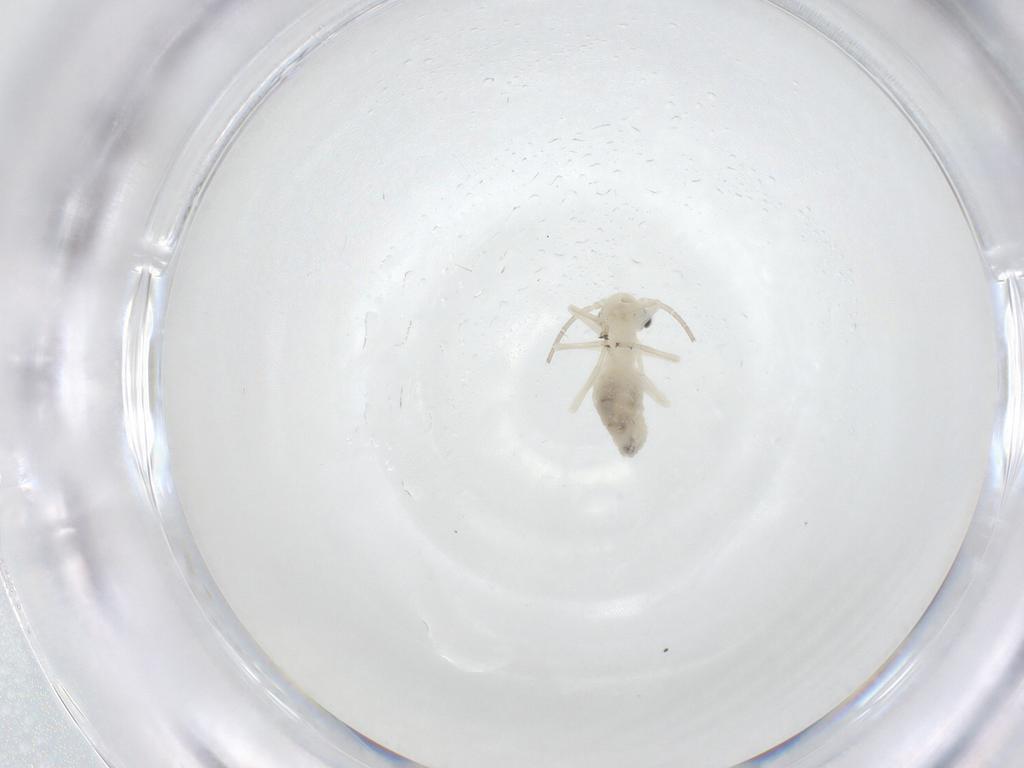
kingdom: Animalia
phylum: Arthropoda
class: Insecta
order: Psocodea
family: Caeciliusidae
